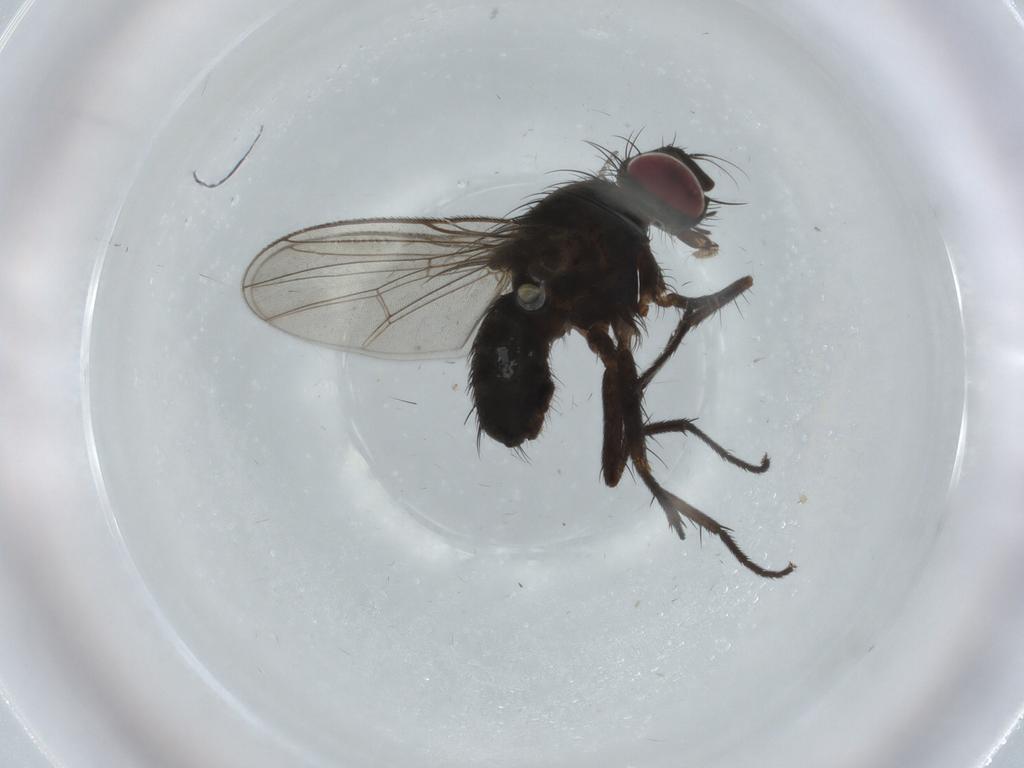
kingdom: Animalia
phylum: Arthropoda
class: Insecta
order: Diptera
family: Muscidae
